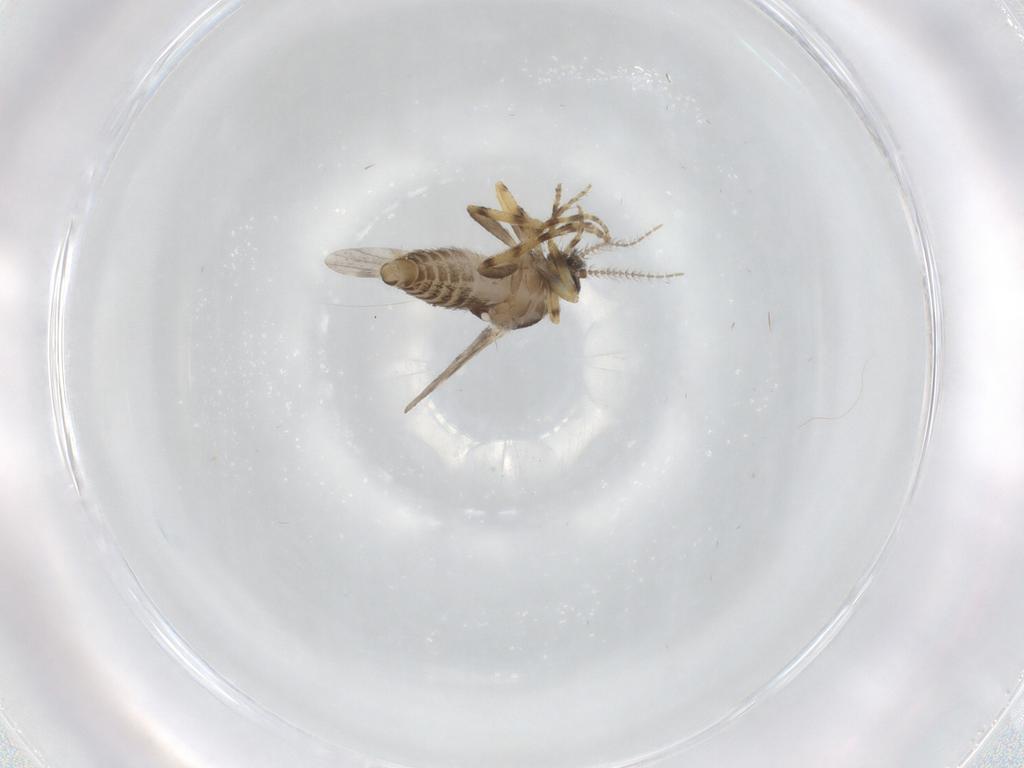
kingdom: Animalia
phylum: Arthropoda
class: Insecta
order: Diptera
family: Ceratopogonidae
